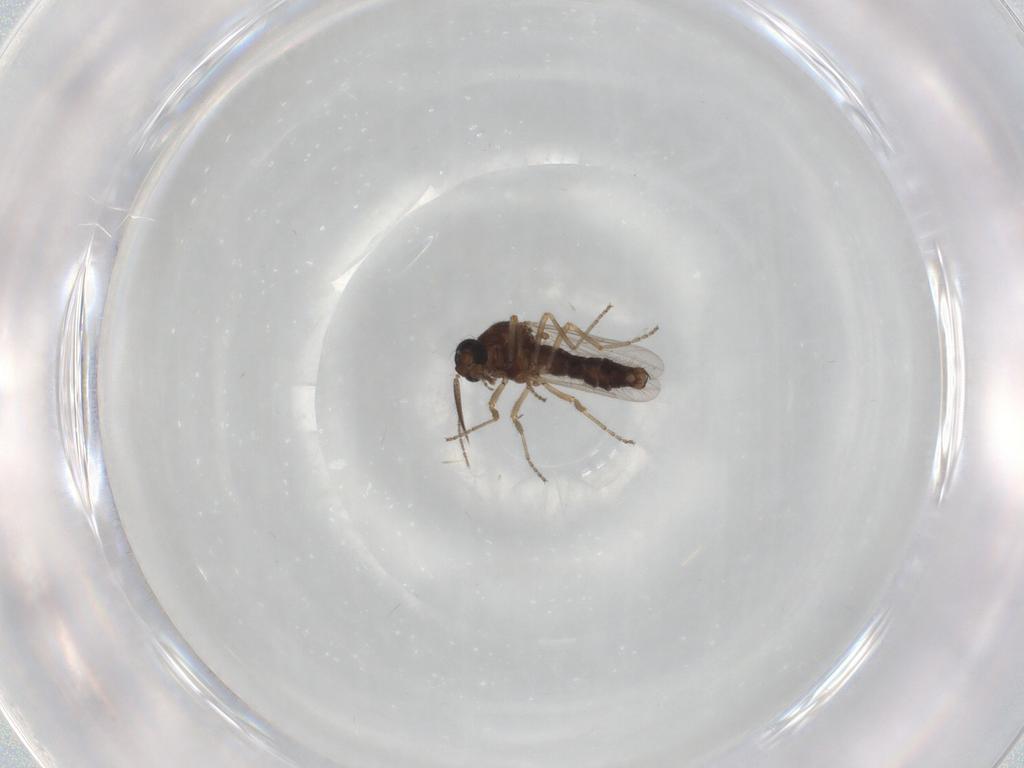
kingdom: Animalia
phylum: Arthropoda
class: Insecta
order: Diptera
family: Ceratopogonidae
